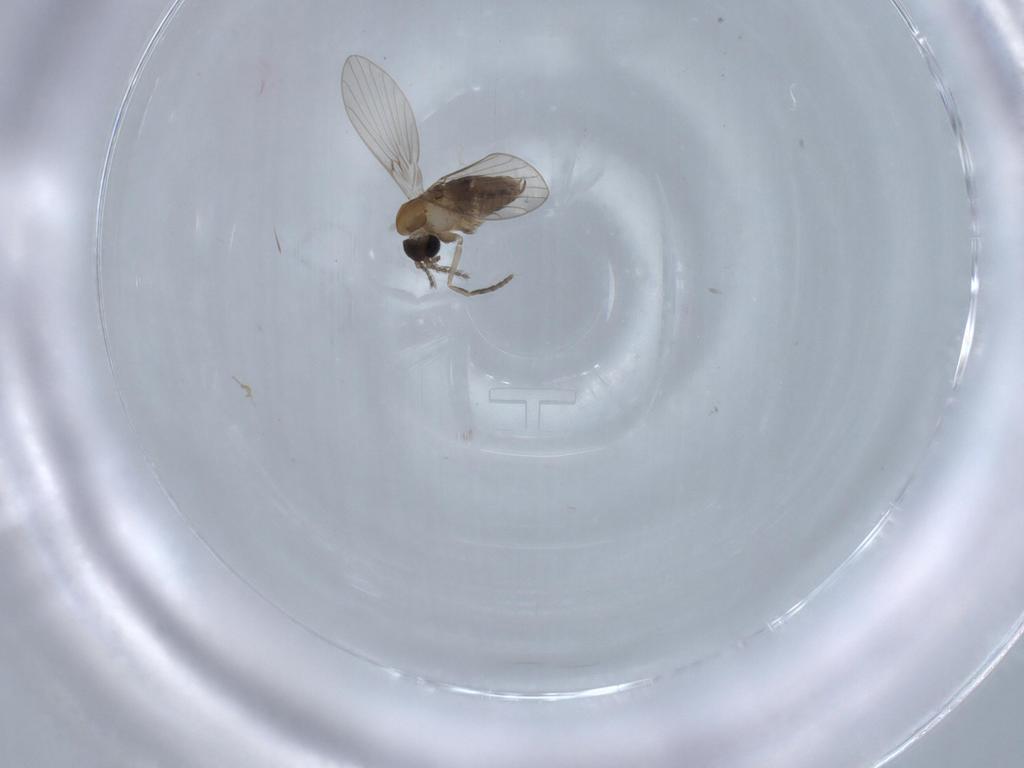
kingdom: Animalia
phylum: Arthropoda
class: Insecta
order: Diptera
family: Psychodidae
